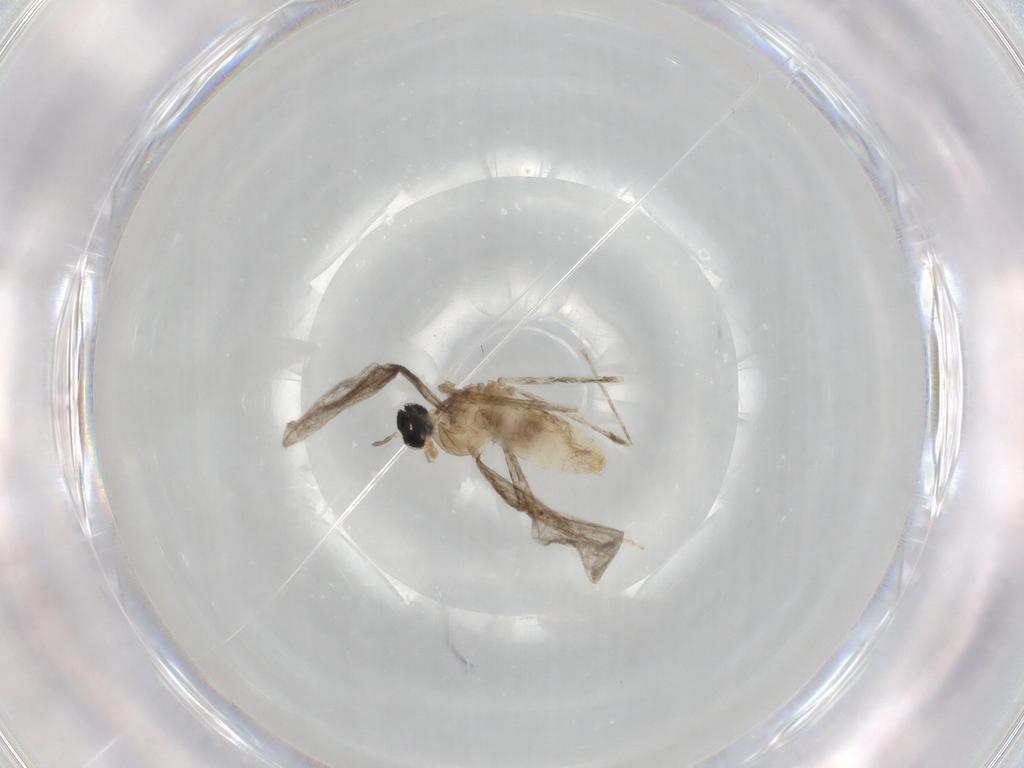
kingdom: Animalia
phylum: Arthropoda
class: Insecta
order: Diptera
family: Cecidomyiidae
